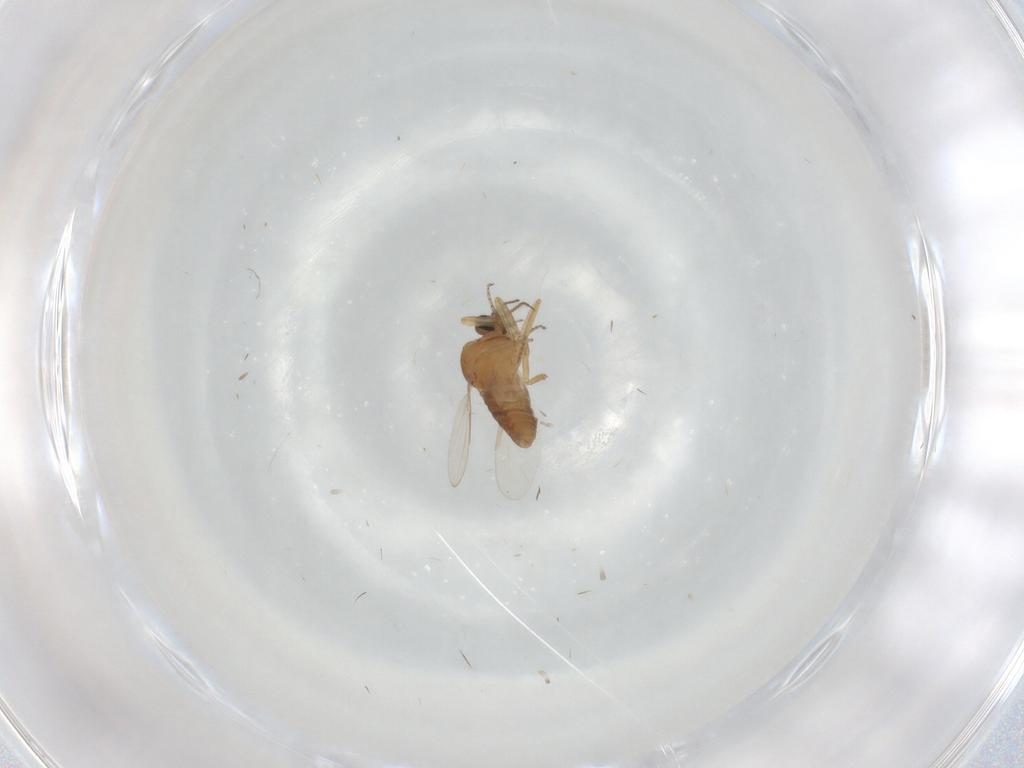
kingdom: Animalia
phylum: Arthropoda
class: Insecta
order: Diptera
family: Ceratopogonidae
